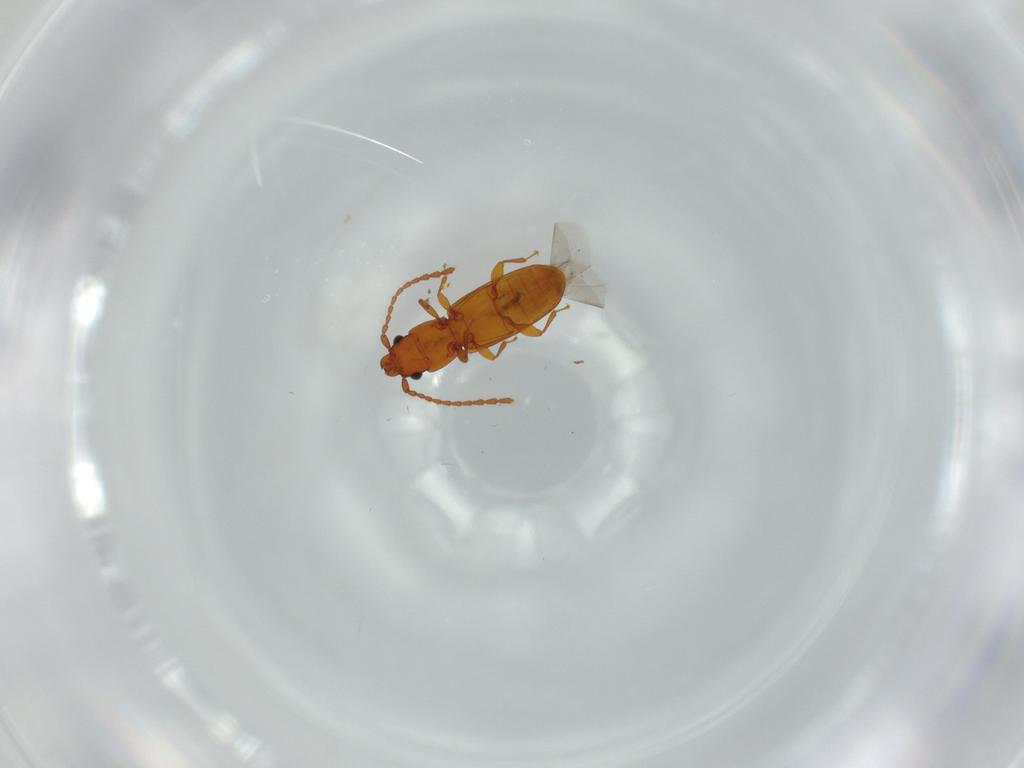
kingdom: Animalia
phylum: Arthropoda
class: Insecta
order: Coleoptera
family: Chrysomelidae
